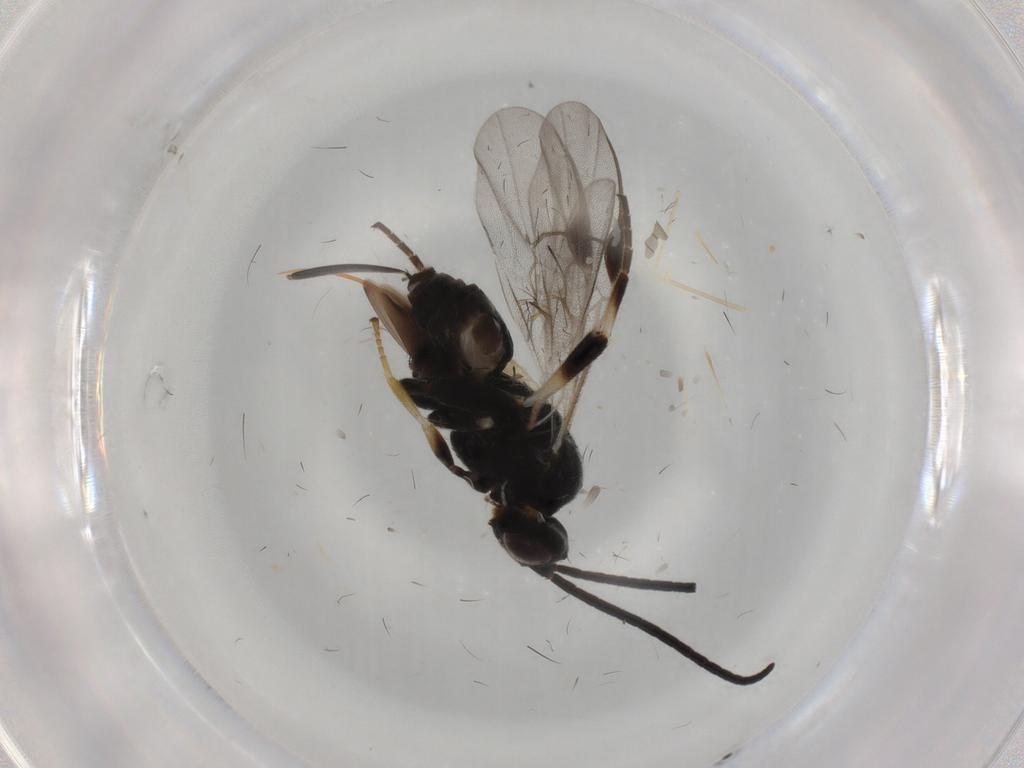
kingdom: Animalia
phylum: Arthropoda
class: Insecta
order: Hymenoptera
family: Braconidae
